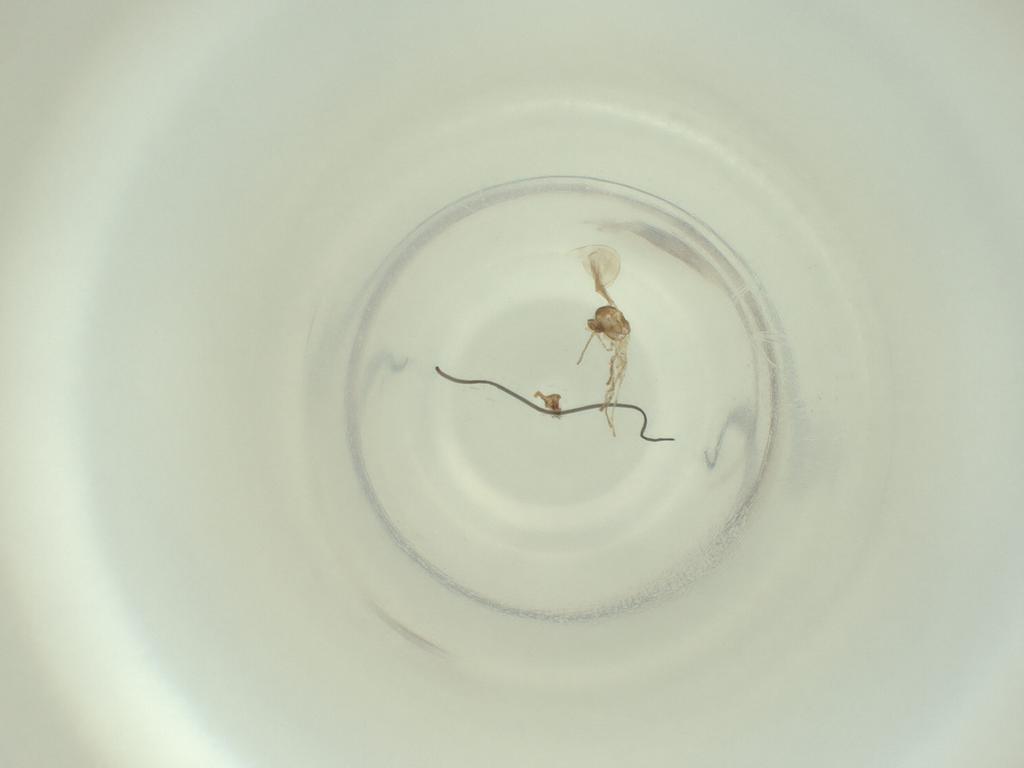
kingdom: Animalia
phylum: Arthropoda
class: Insecta
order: Diptera
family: Cecidomyiidae
